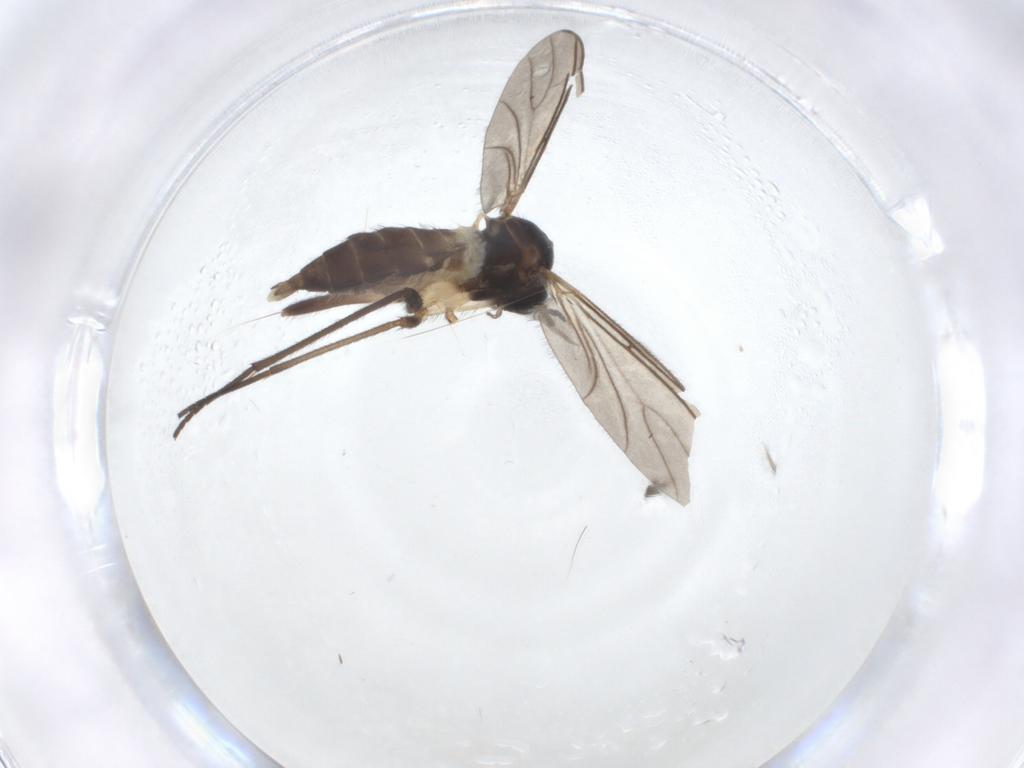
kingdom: Animalia
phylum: Arthropoda
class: Insecta
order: Diptera
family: Sciaridae
